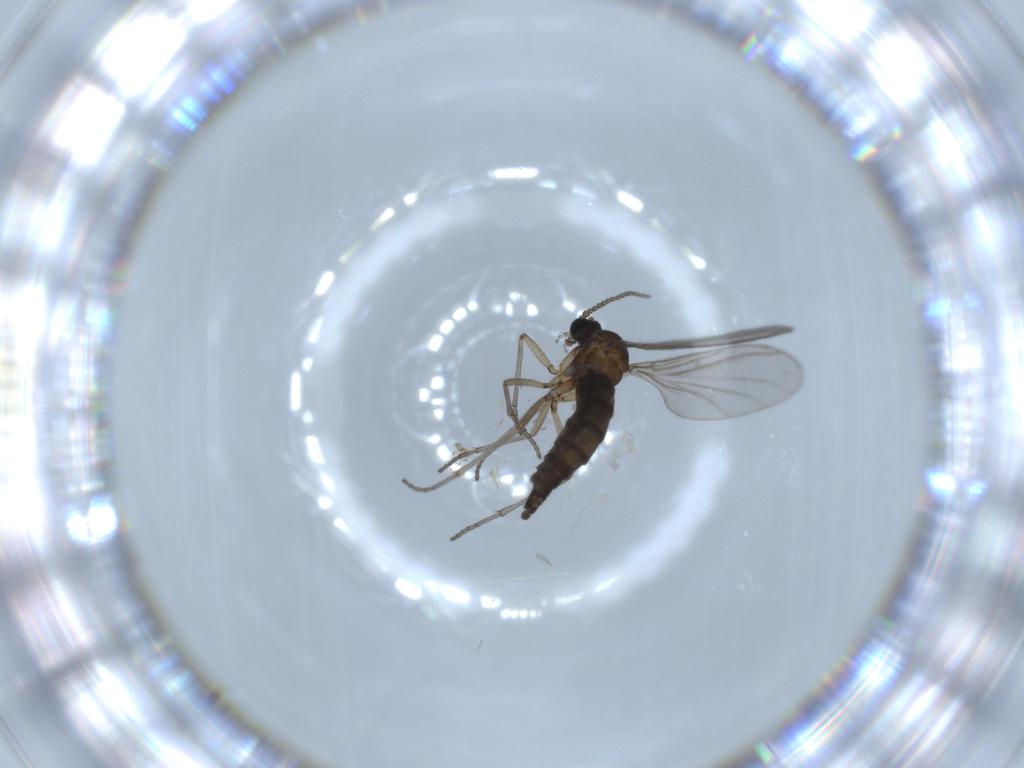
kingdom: Animalia
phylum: Arthropoda
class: Insecta
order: Diptera
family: Sciaridae
